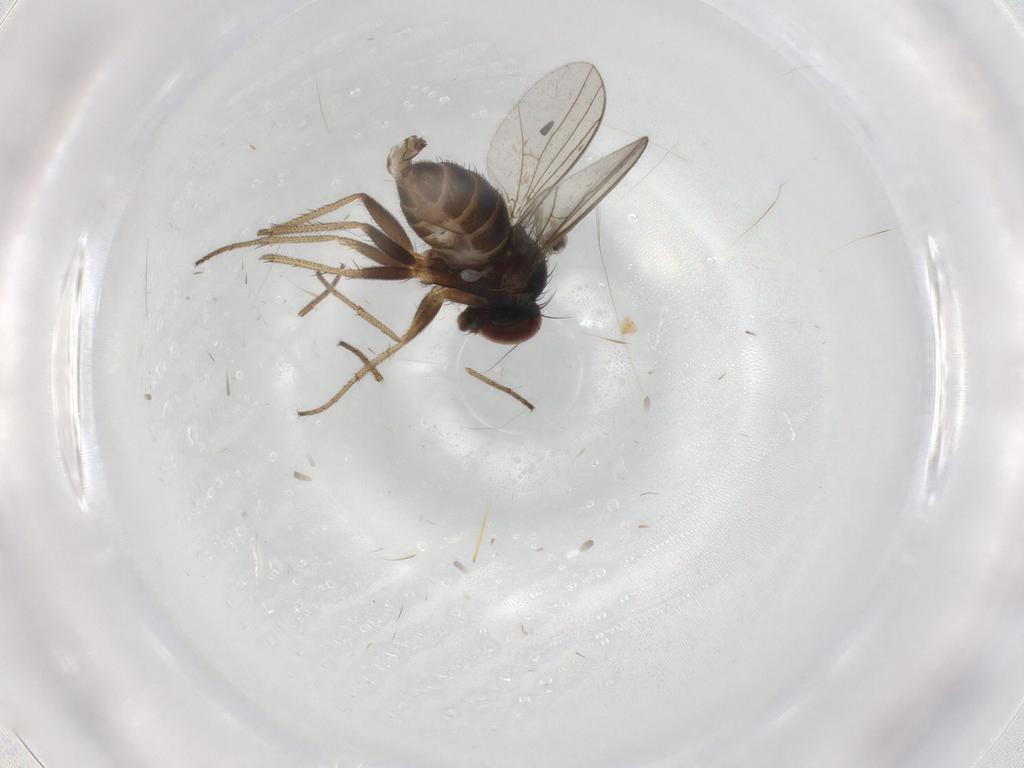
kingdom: Animalia
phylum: Arthropoda
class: Insecta
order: Diptera
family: Phoridae
